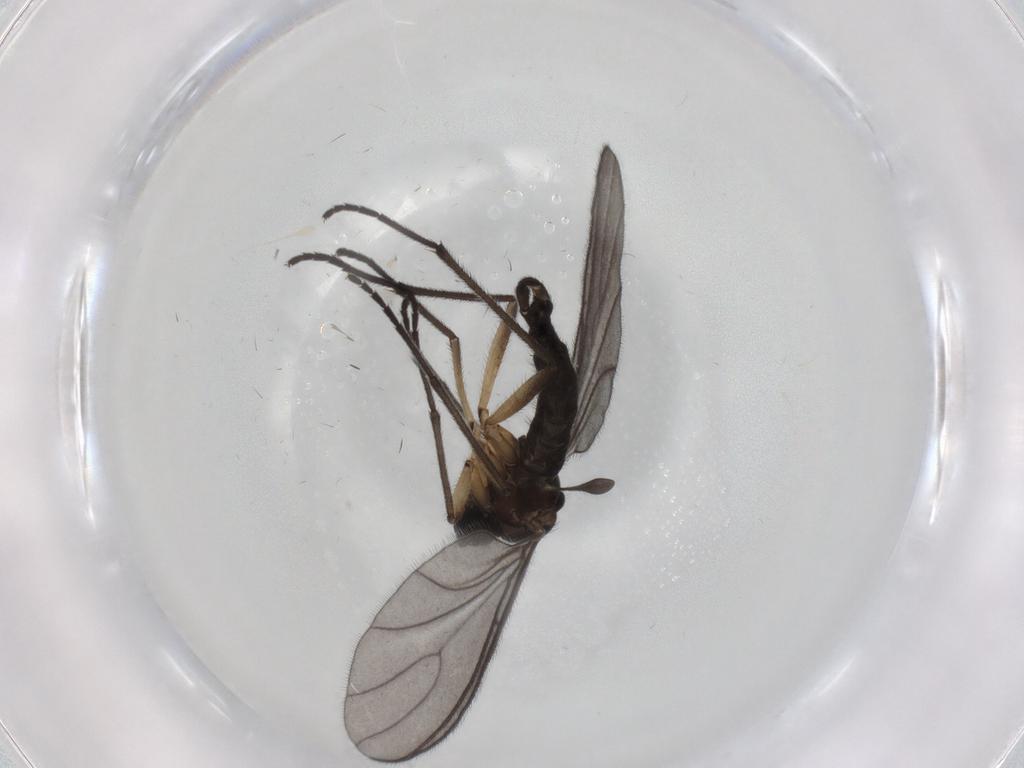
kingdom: Animalia
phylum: Arthropoda
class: Insecta
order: Diptera
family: Sciaridae
